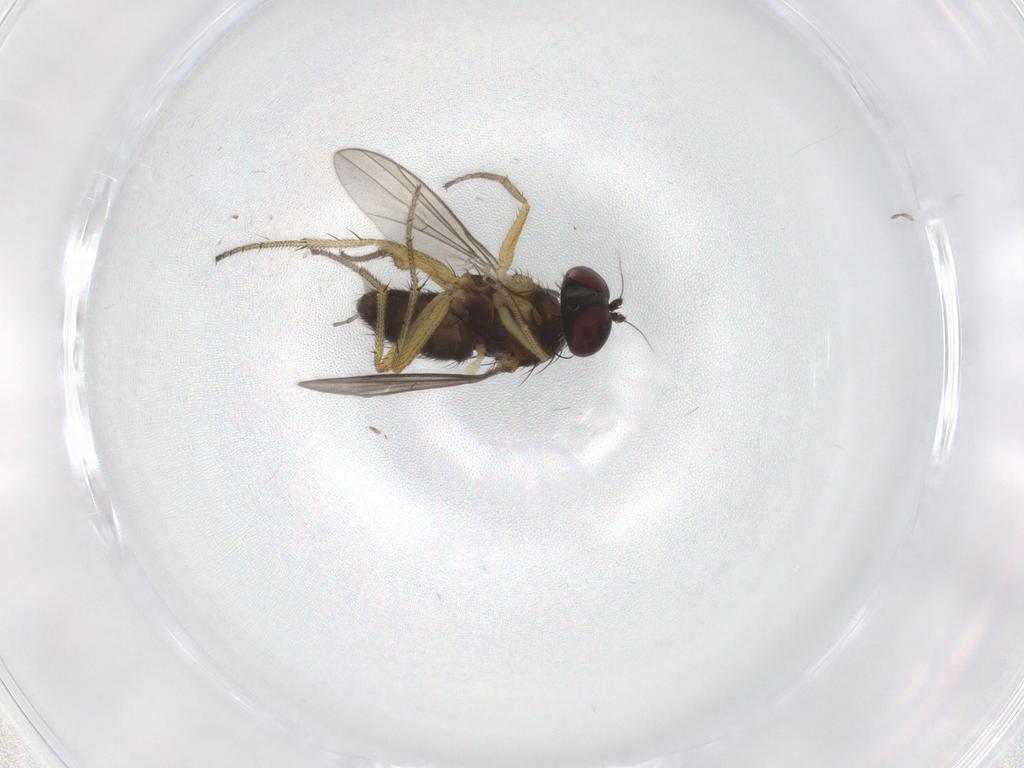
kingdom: Animalia
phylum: Arthropoda
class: Insecta
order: Diptera
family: Sciaridae
